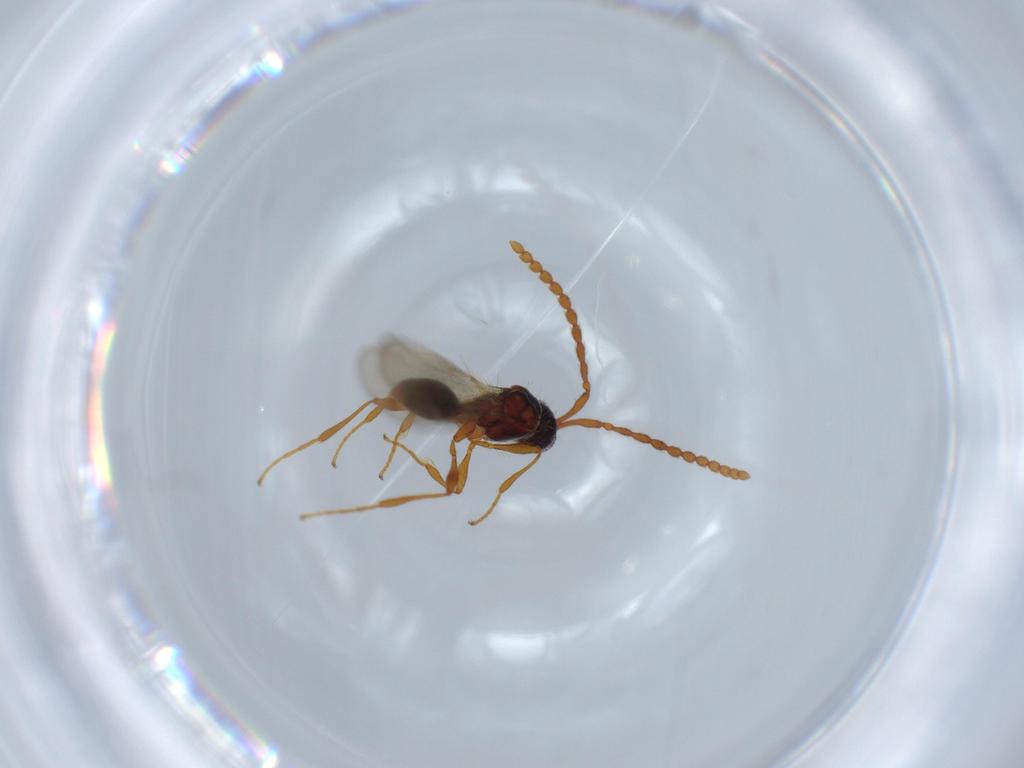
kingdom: Animalia
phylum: Arthropoda
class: Insecta
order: Hymenoptera
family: Diapriidae
